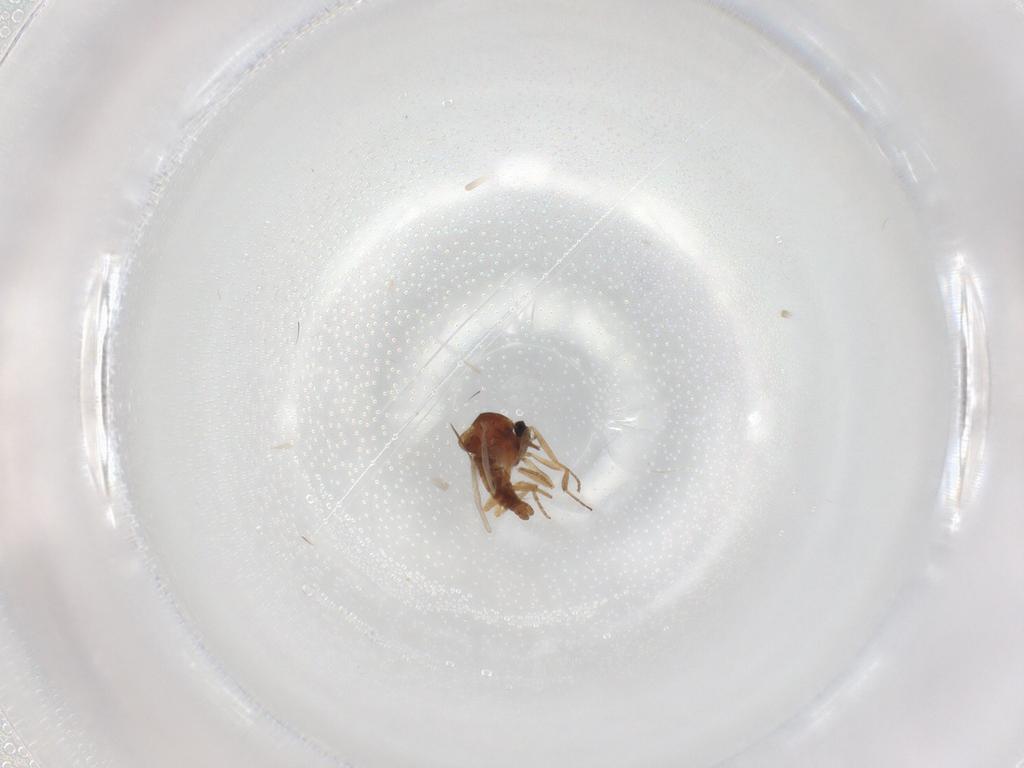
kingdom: Animalia
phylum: Arthropoda
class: Insecta
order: Diptera
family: Ceratopogonidae
